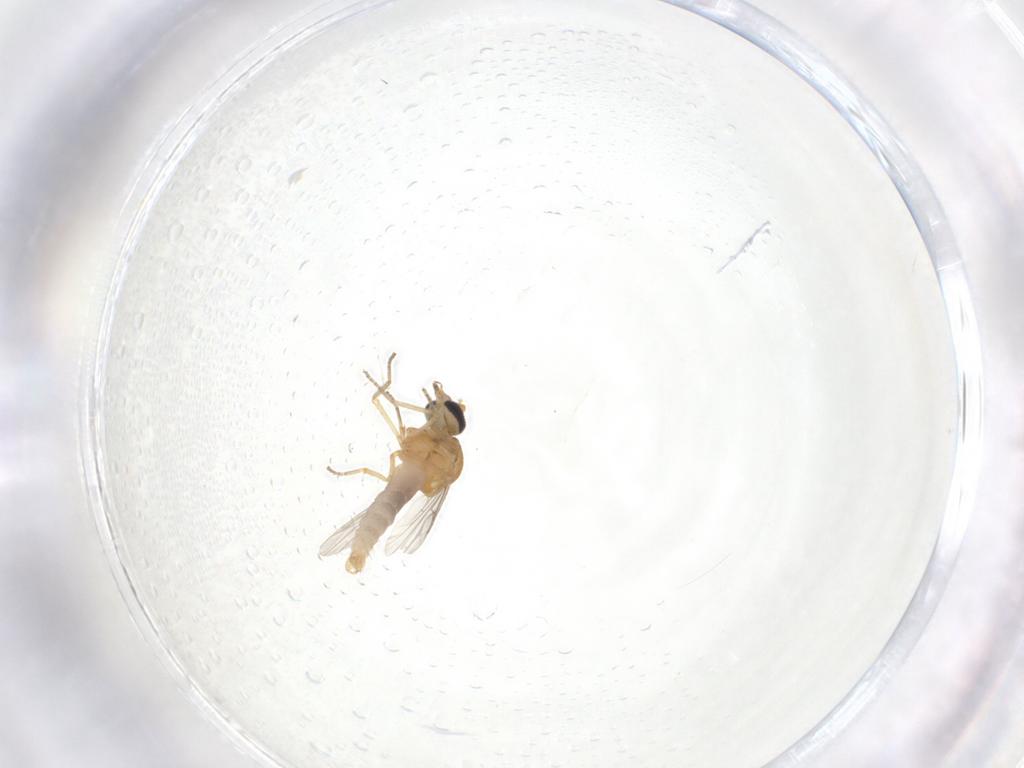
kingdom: Animalia
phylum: Arthropoda
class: Insecta
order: Diptera
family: Ceratopogonidae
